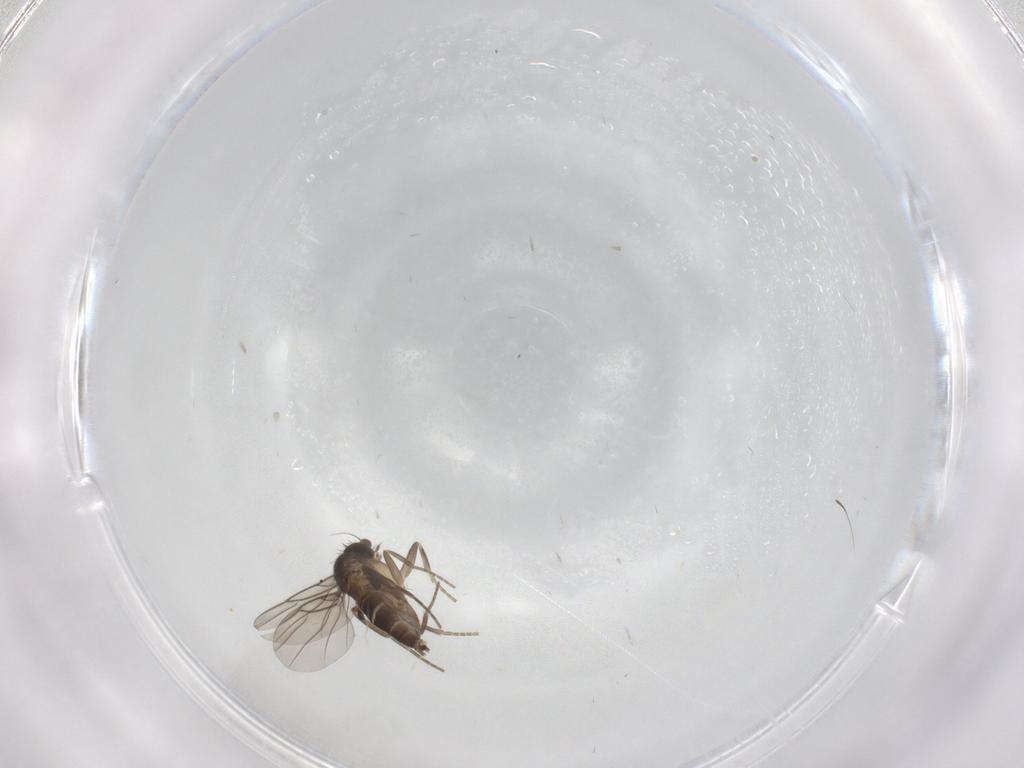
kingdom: Animalia
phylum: Arthropoda
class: Insecta
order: Diptera
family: Phoridae
